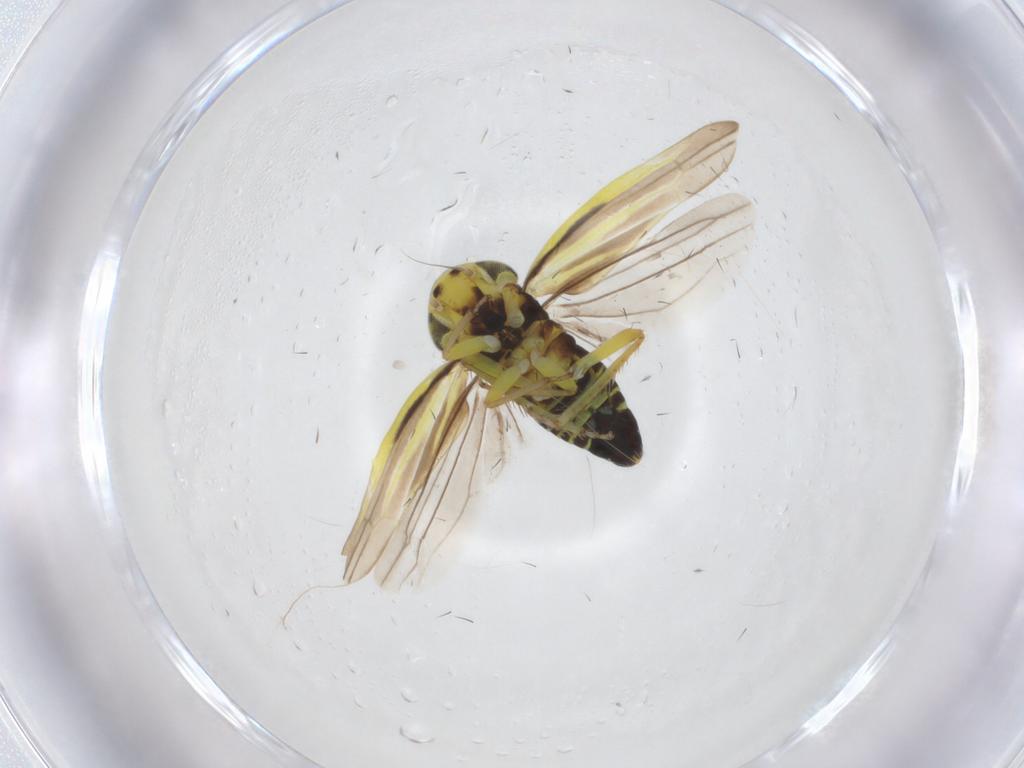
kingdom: Animalia
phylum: Arthropoda
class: Insecta
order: Hemiptera
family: Cicadellidae
